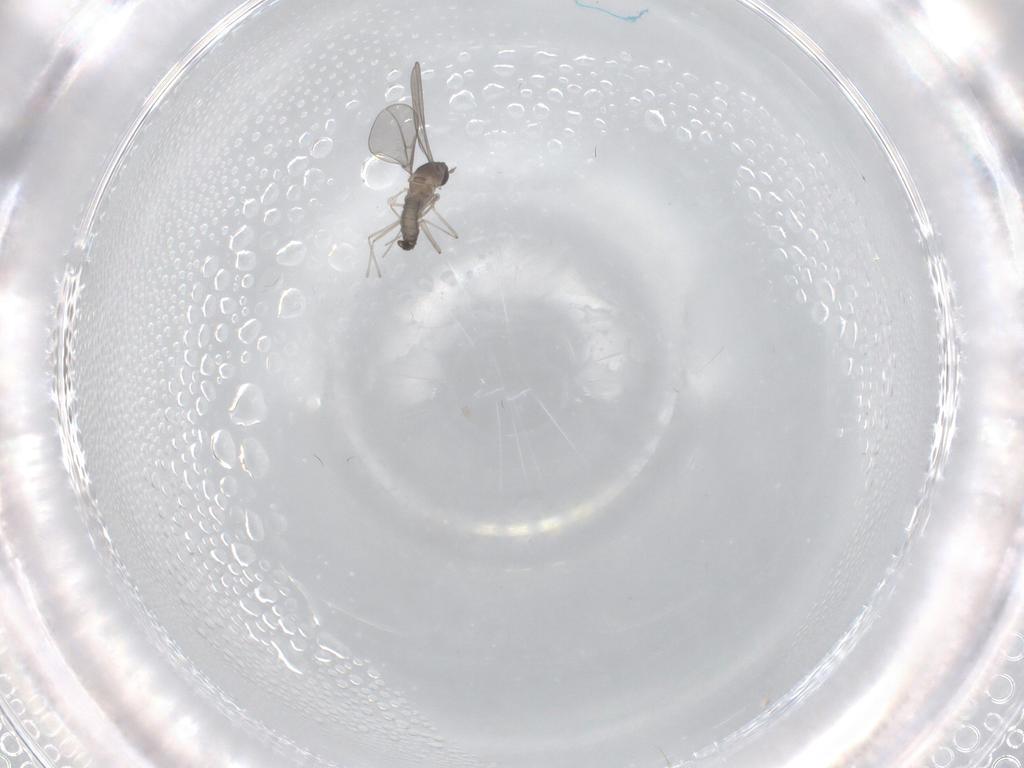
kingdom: Animalia
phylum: Arthropoda
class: Insecta
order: Diptera
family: Cecidomyiidae
